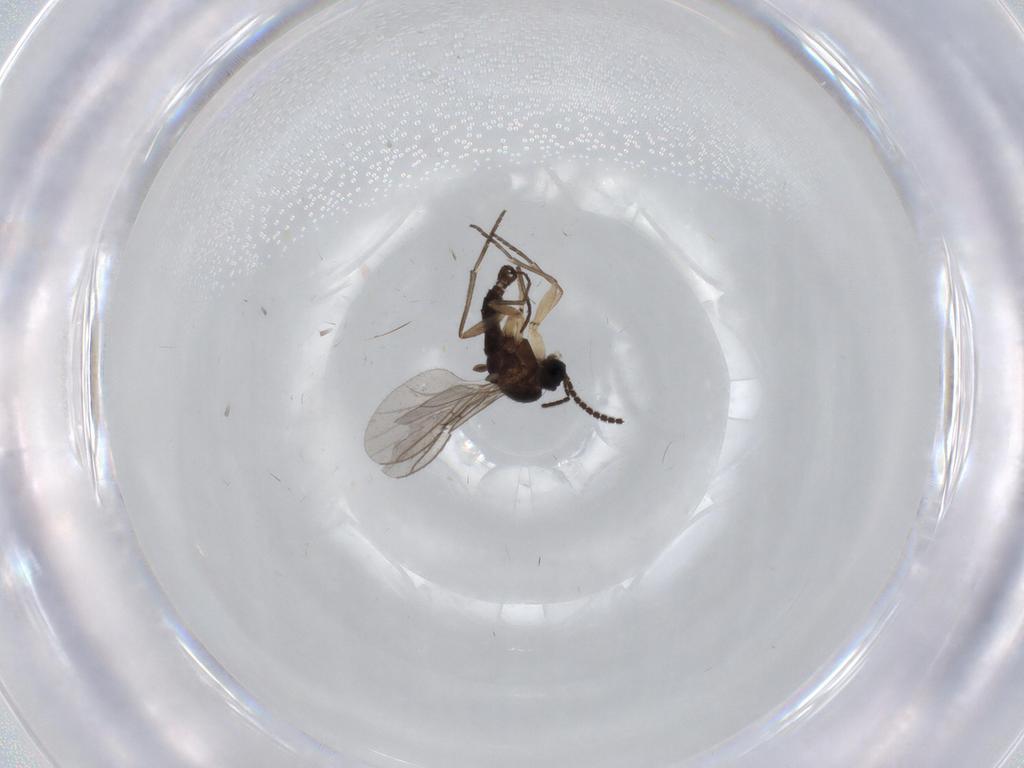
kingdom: Animalia
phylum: Arthropoda
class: Insecta
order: Diptera
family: Sciaridae
